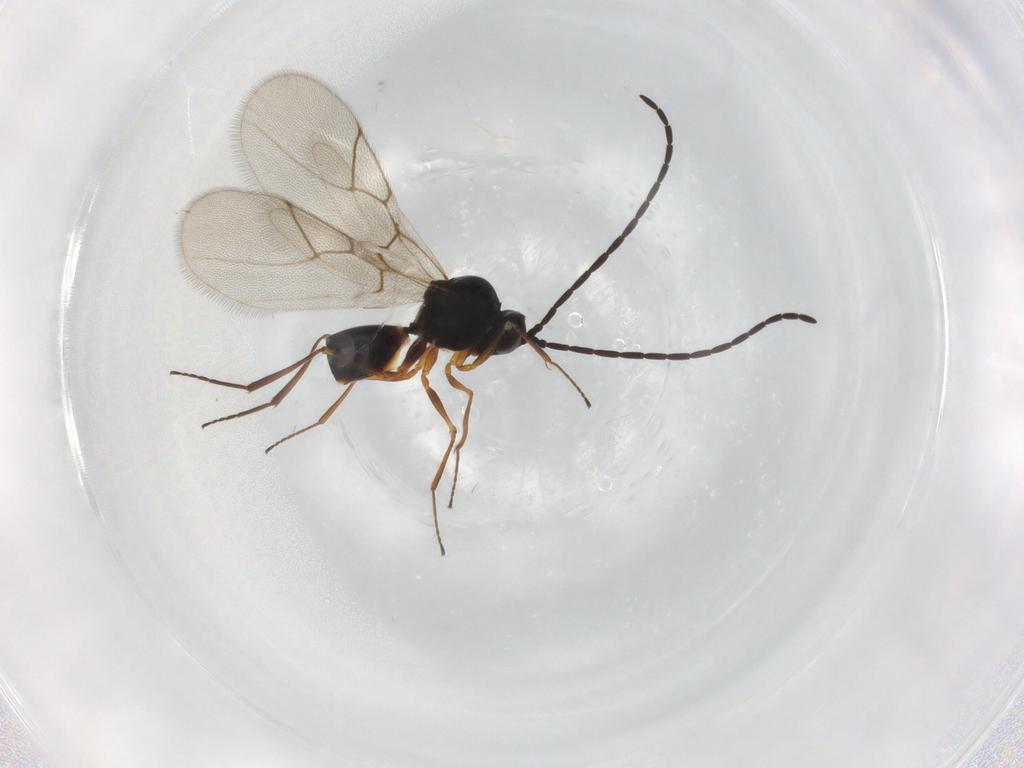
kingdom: Animalia
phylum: Arthropoda
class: Insecta
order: Hymenoptera
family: Figitidae
